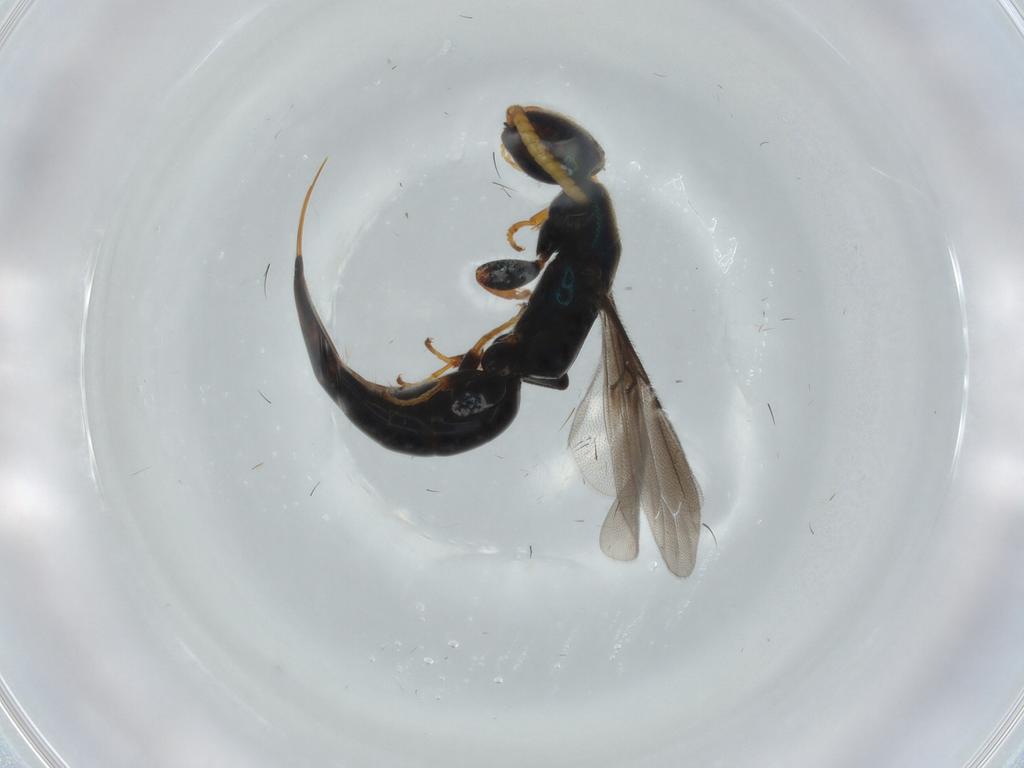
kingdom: Animalia
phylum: Arthropoda
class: Insecta
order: Hymenoptera
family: Bethylidae
